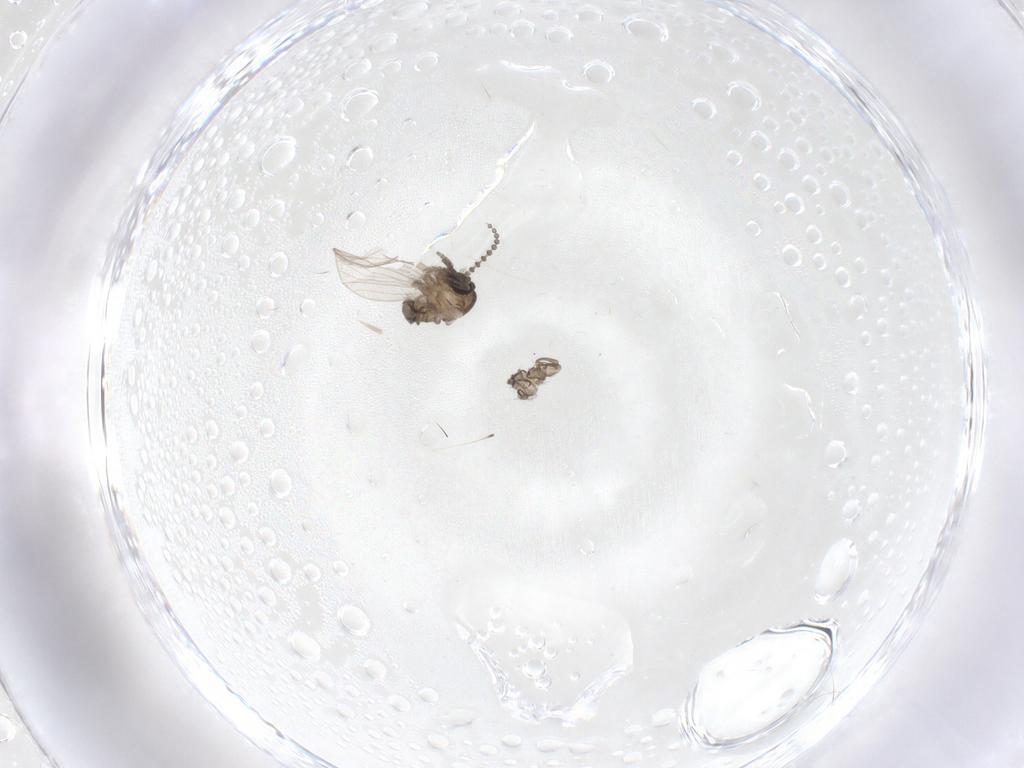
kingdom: Animalia
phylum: Arthropoda
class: Insecta
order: Diptera
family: Psychodidae
